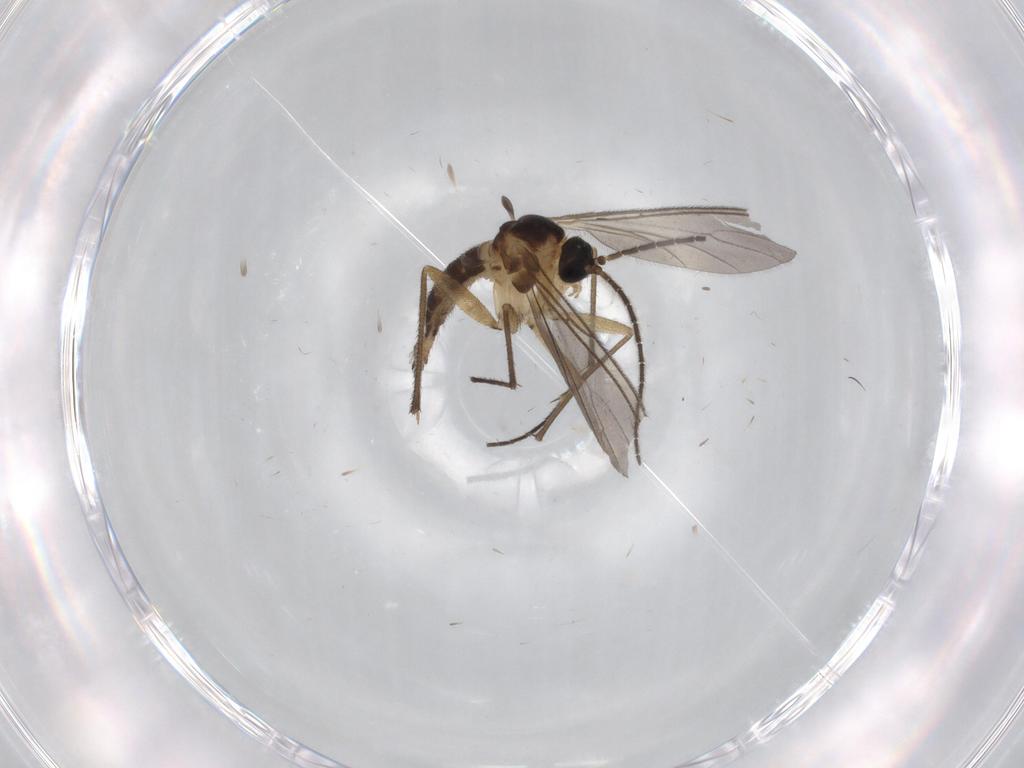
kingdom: Animalia
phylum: Arthropoda
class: Insecta
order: Diptera
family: Sciaridae
